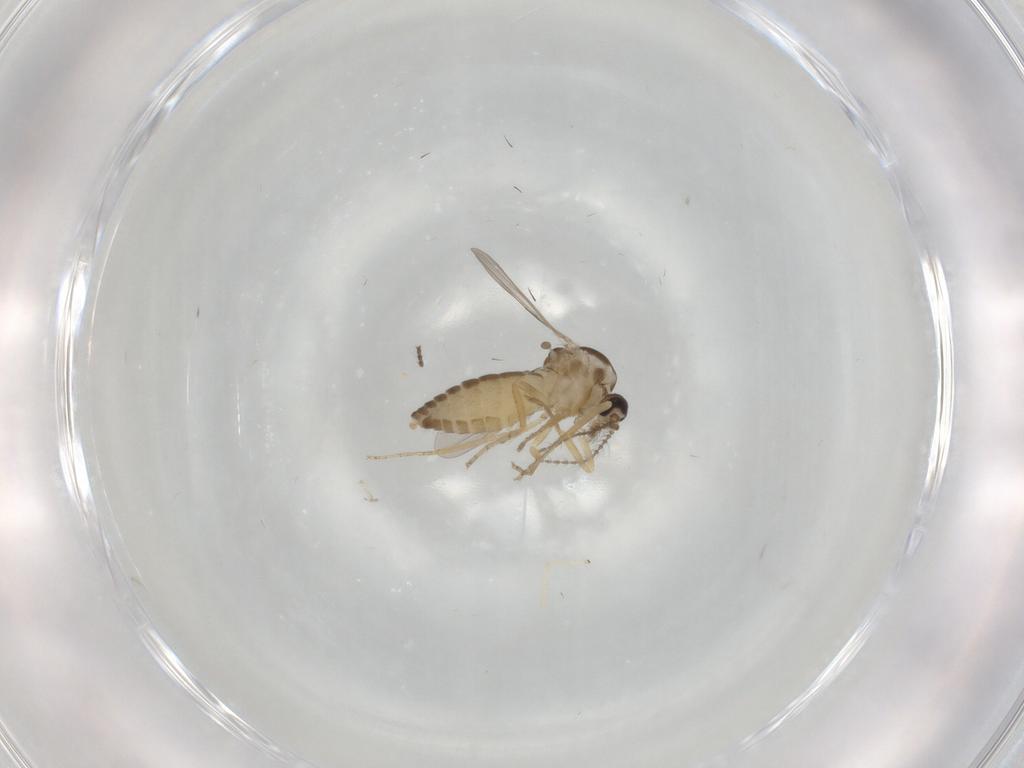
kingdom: Animalia
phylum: Arthropoda
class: Insecta
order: Diptera
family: Ceratopogonidae
